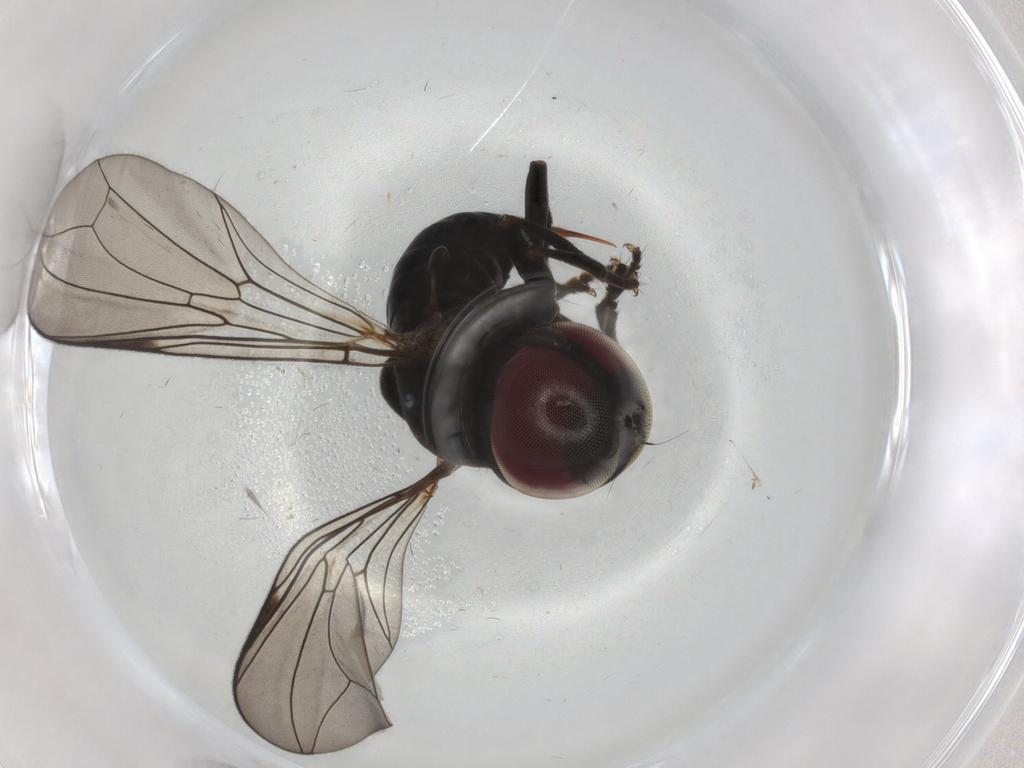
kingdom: Animalia
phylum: Arthropoda
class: Insecta
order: Diptera
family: Pipunculidae
